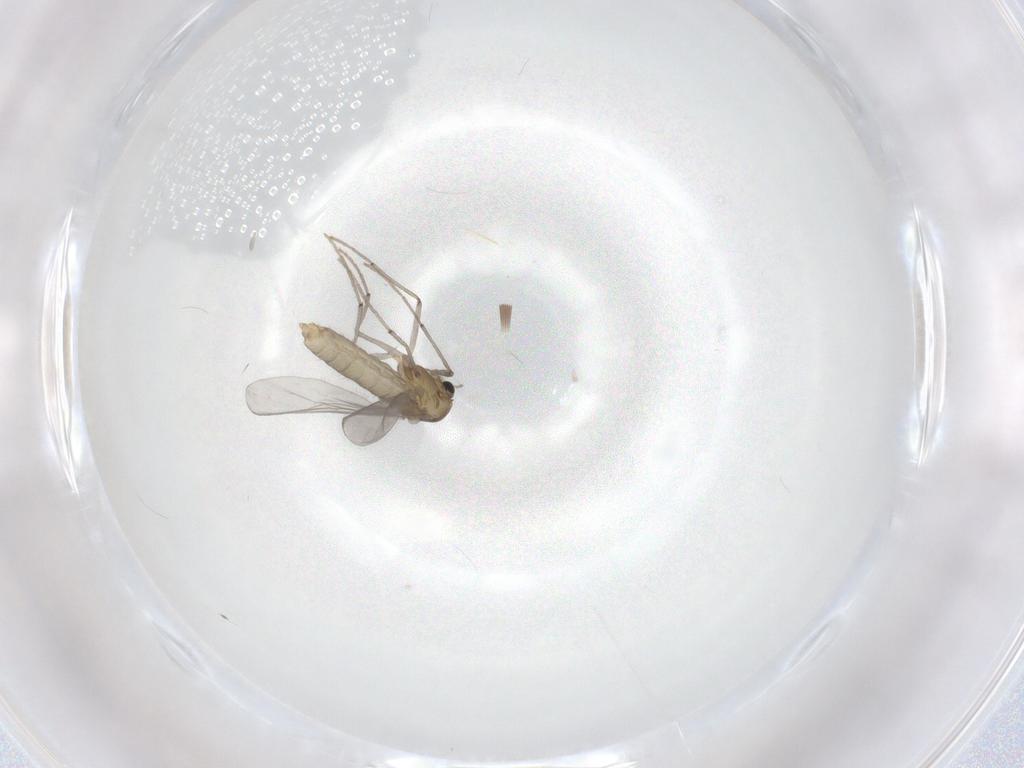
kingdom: Animalia
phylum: Arthropoda
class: Insecta
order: Diptera
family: Chironomidae
